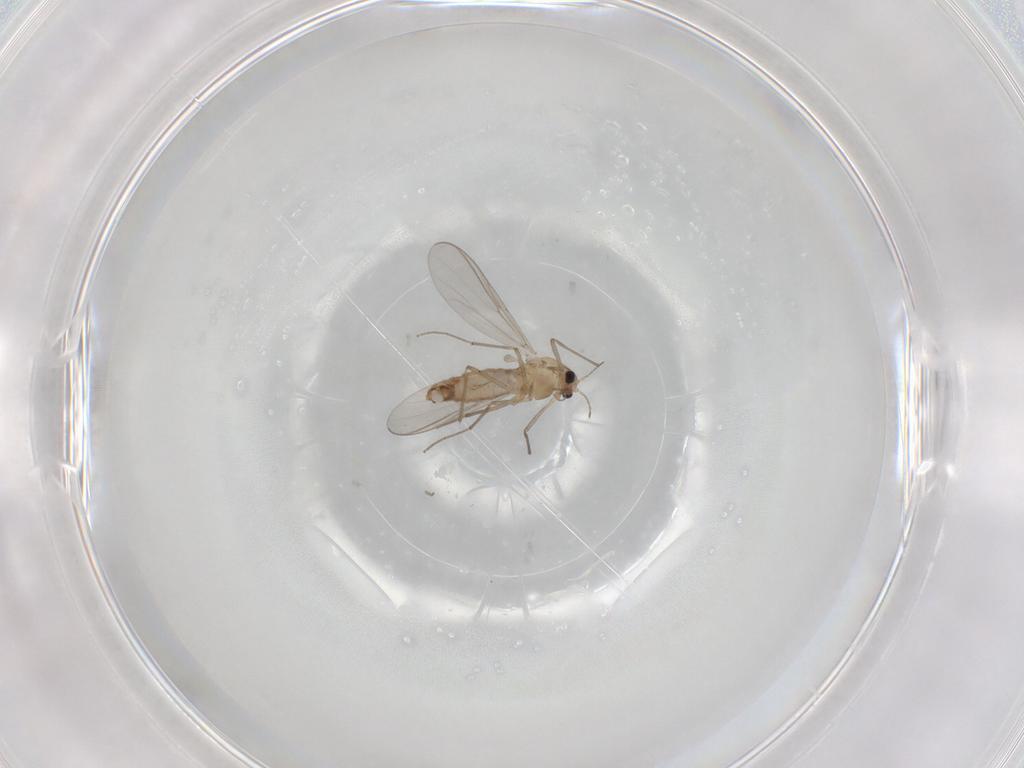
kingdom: Animalia
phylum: Arthropoda
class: Insecta
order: Diptera
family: Chironomidae
